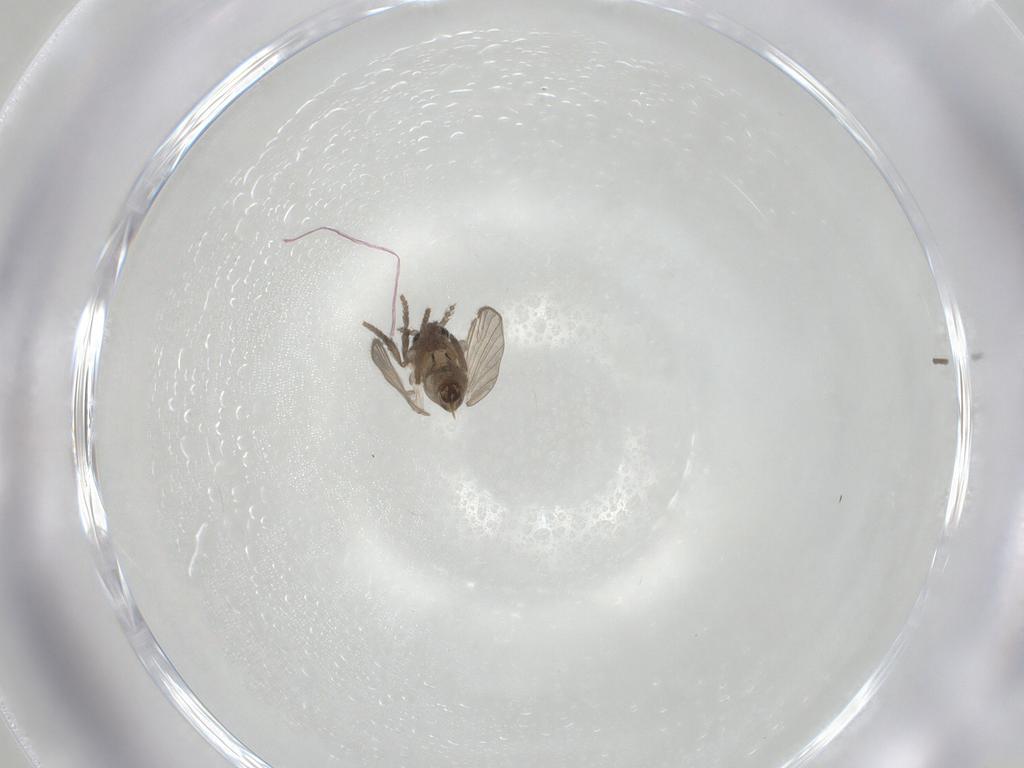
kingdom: Animalia
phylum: Arthropoda
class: Insecta
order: Diptera
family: Psychodidae
